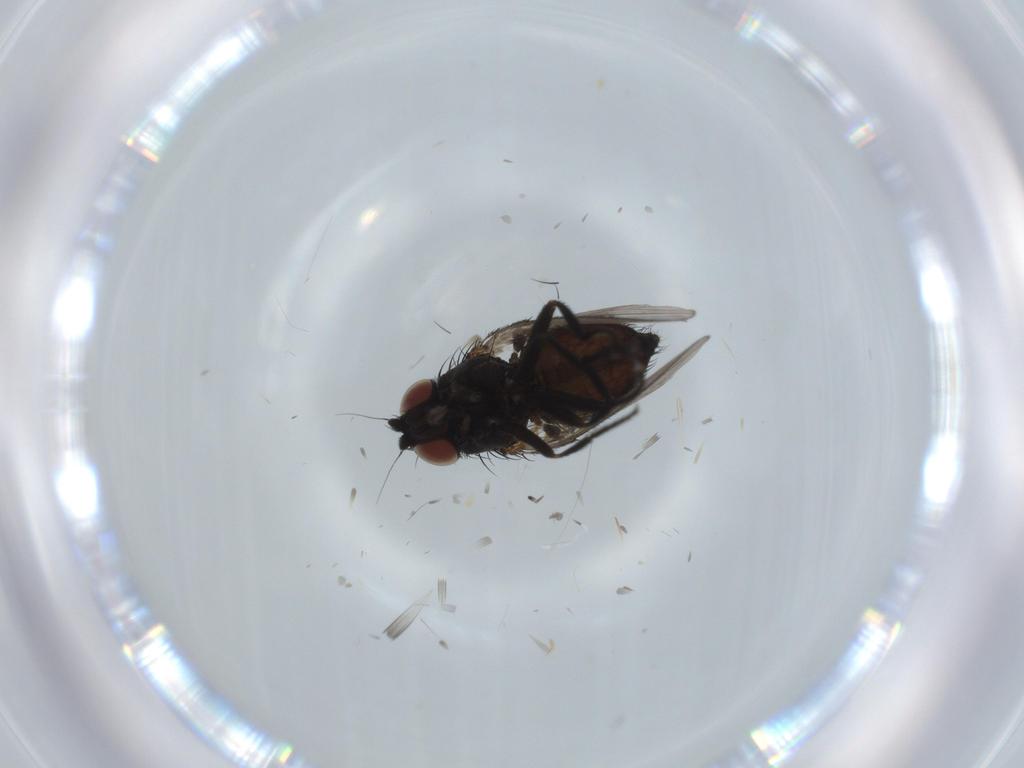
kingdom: Animalia
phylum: Arthropoda
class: Insecta
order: Diptera
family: Milichiidae
